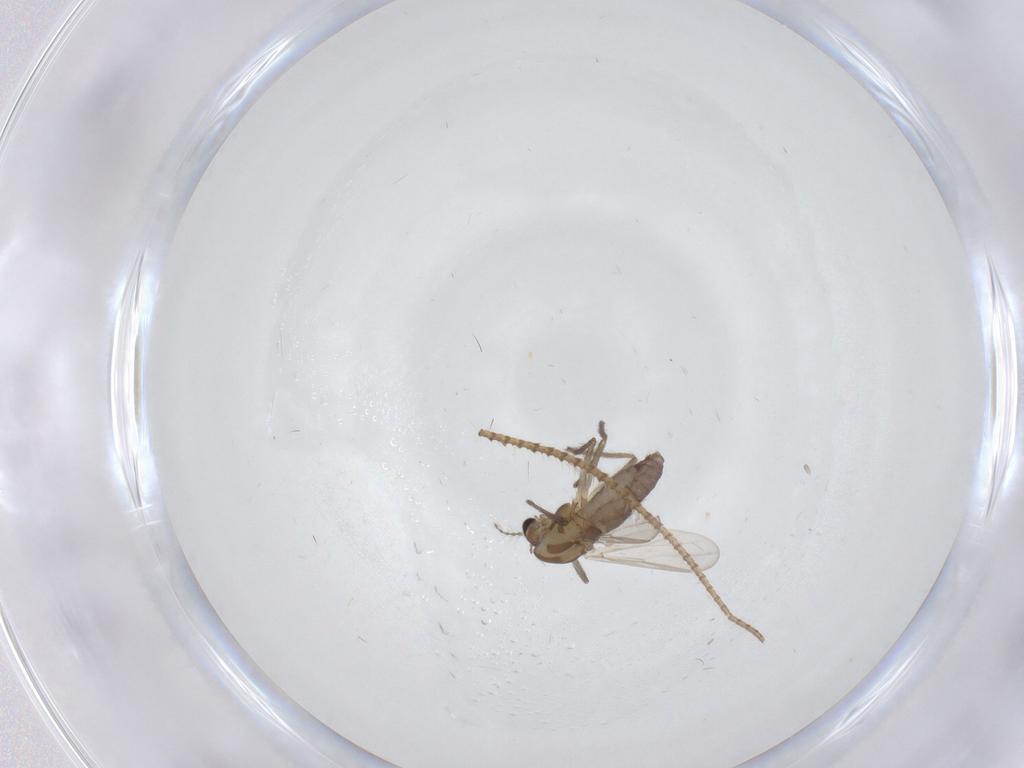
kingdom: Animalia
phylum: Arthropoda
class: Insecta
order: Diptera
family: Chironomidae
